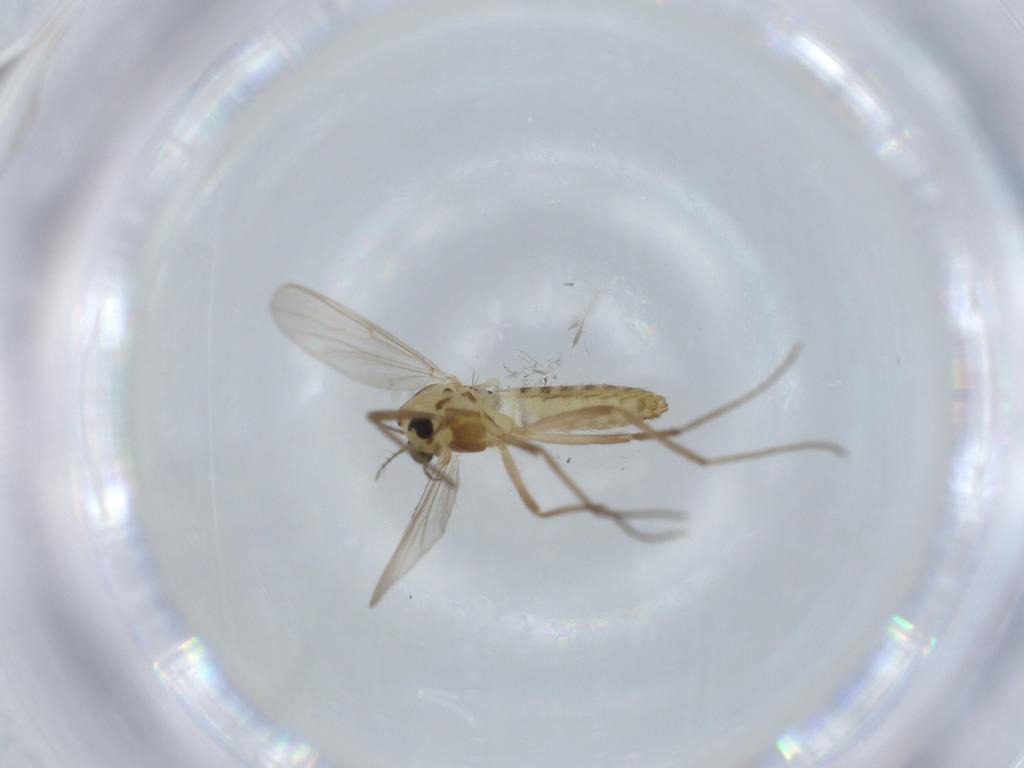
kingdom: Animalia
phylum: Arthropoda
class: Insecta
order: Diptera
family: Chironomidae
